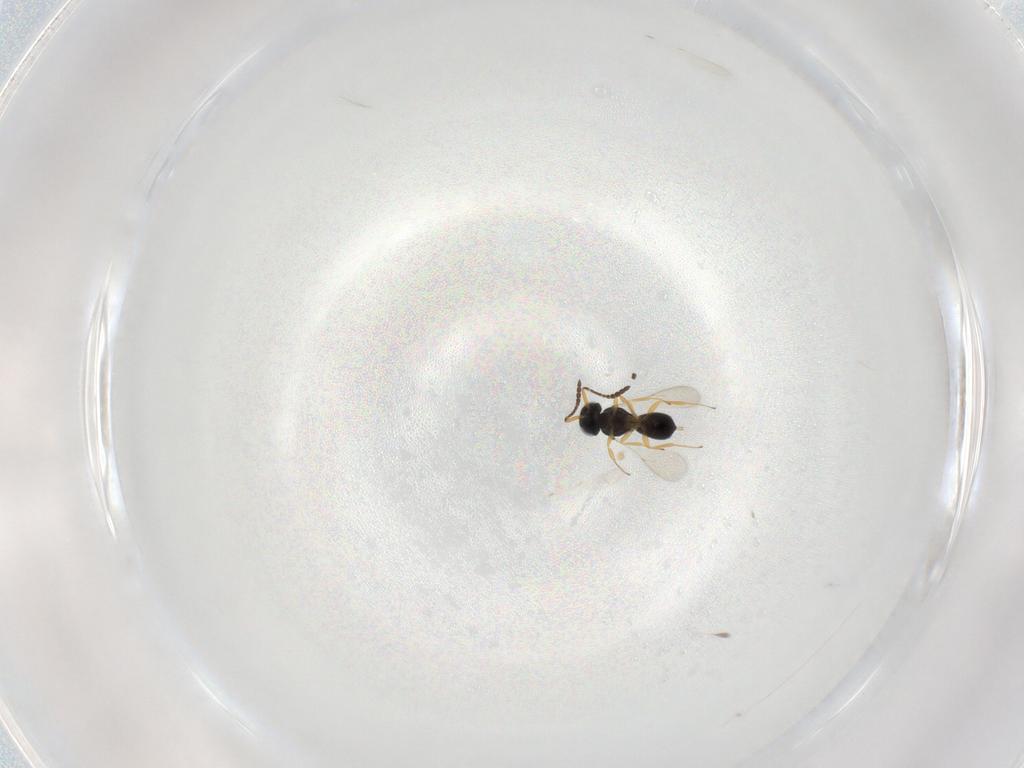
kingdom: Animalia
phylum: Arthropoda
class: Insecta
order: Hymenoptera
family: Scelionidae
